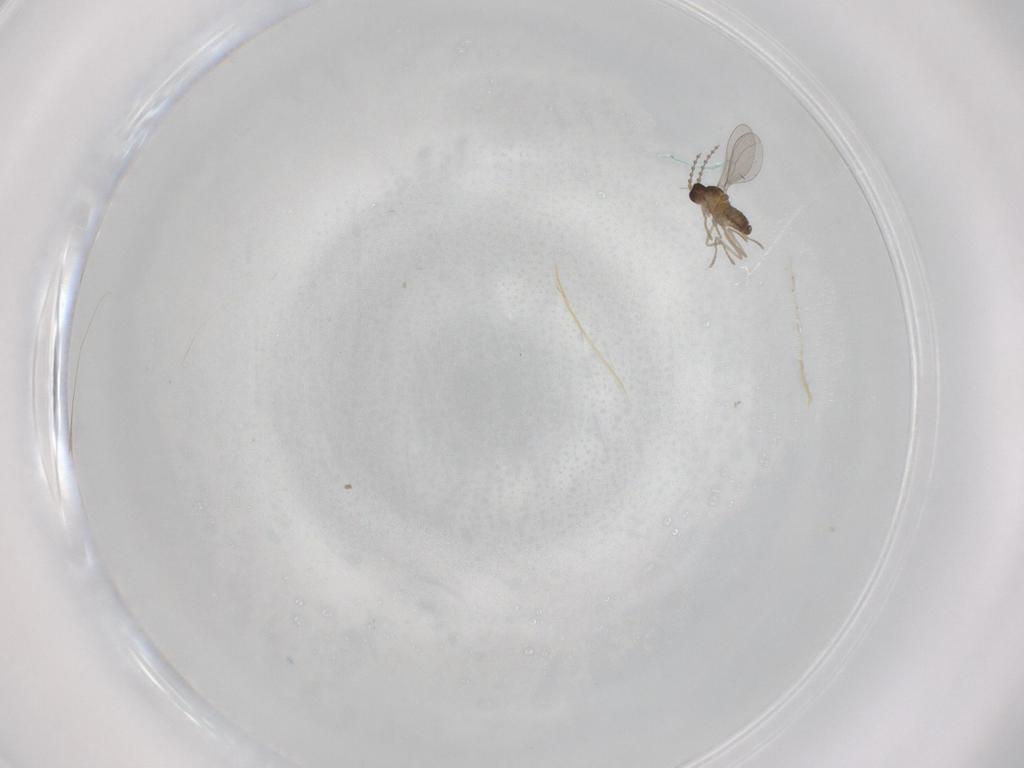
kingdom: Animalia
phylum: Arthropoda
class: Insecta
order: Diptera
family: Cecidomyiidae
